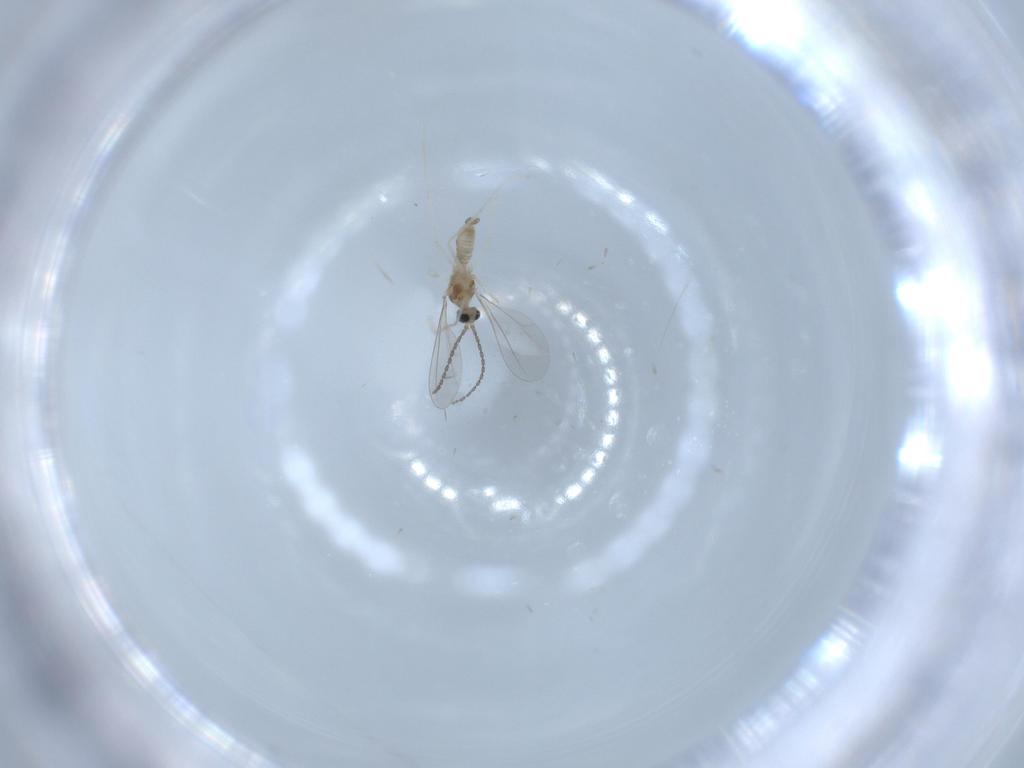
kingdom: Animalia
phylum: Arthropoda
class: Insecta
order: Diptera
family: Cecidomyiidae
